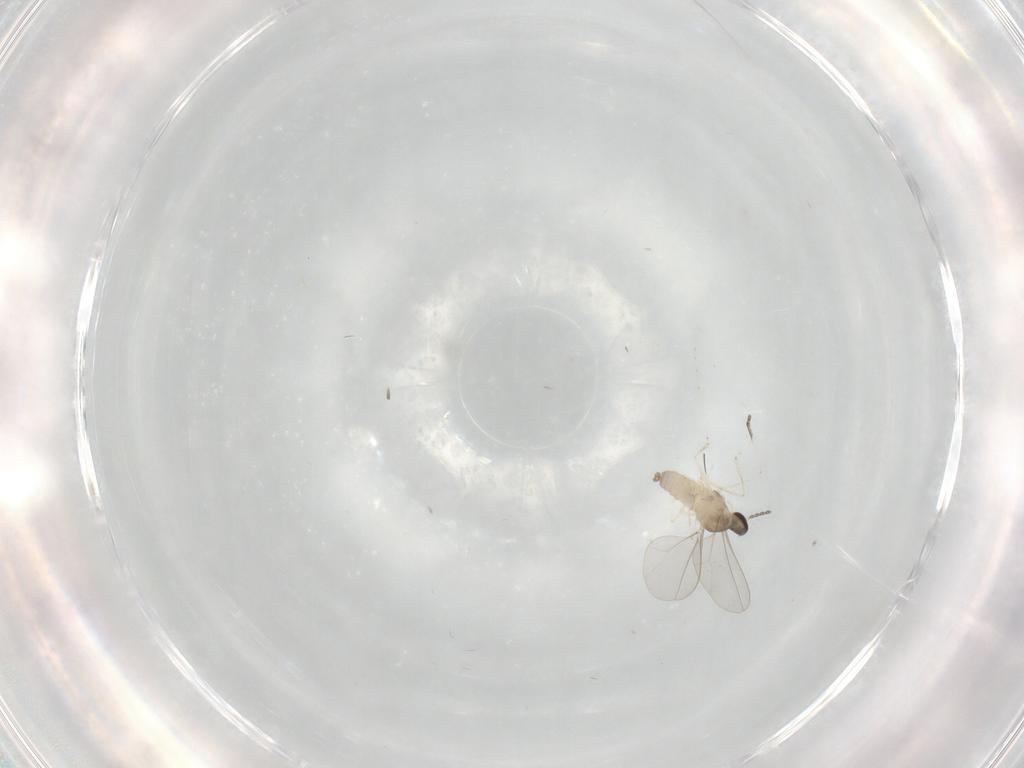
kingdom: Animalia
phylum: Arthropoda
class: Insecta
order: Diptera
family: Cecidomyiidae
